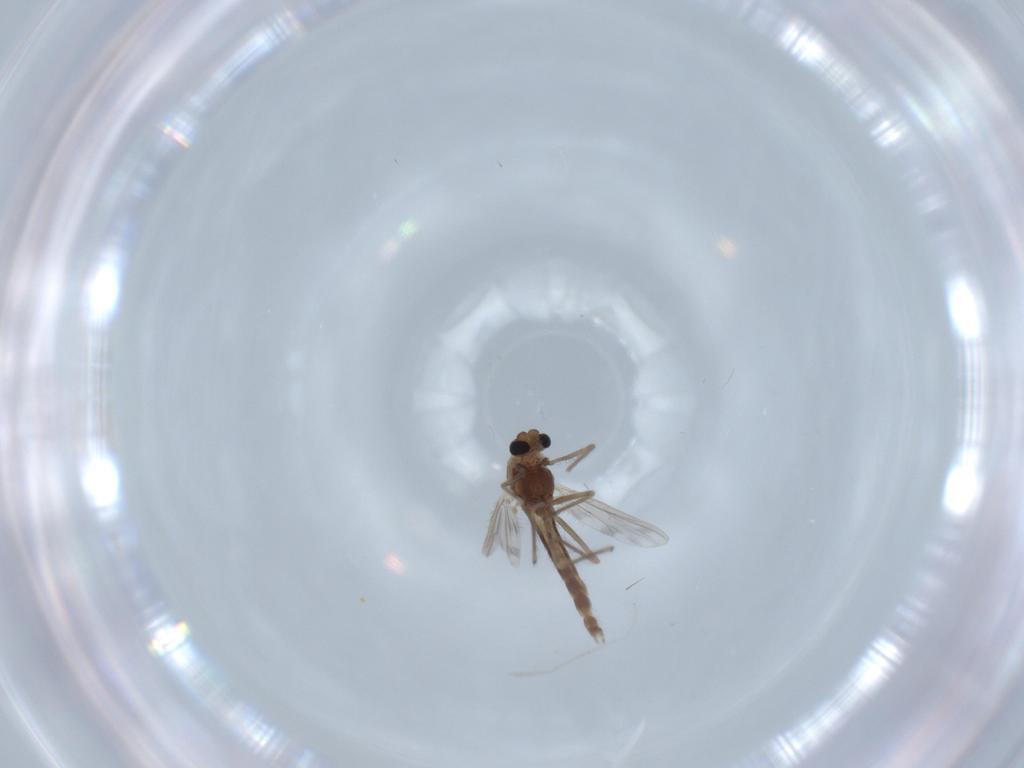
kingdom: Animalia
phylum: Arthropoda
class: Insecta
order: Diptera
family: Chironomidae
